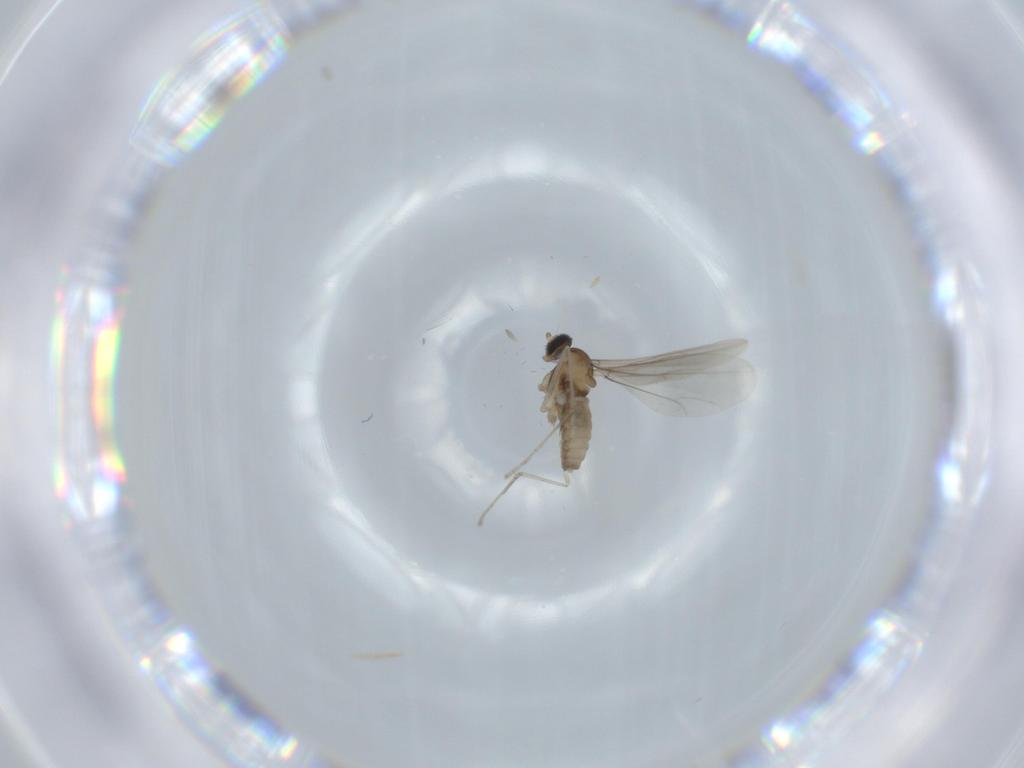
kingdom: Animalia
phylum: Arthropoda
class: Insecta
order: Diptera
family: Cecidomyiidae
